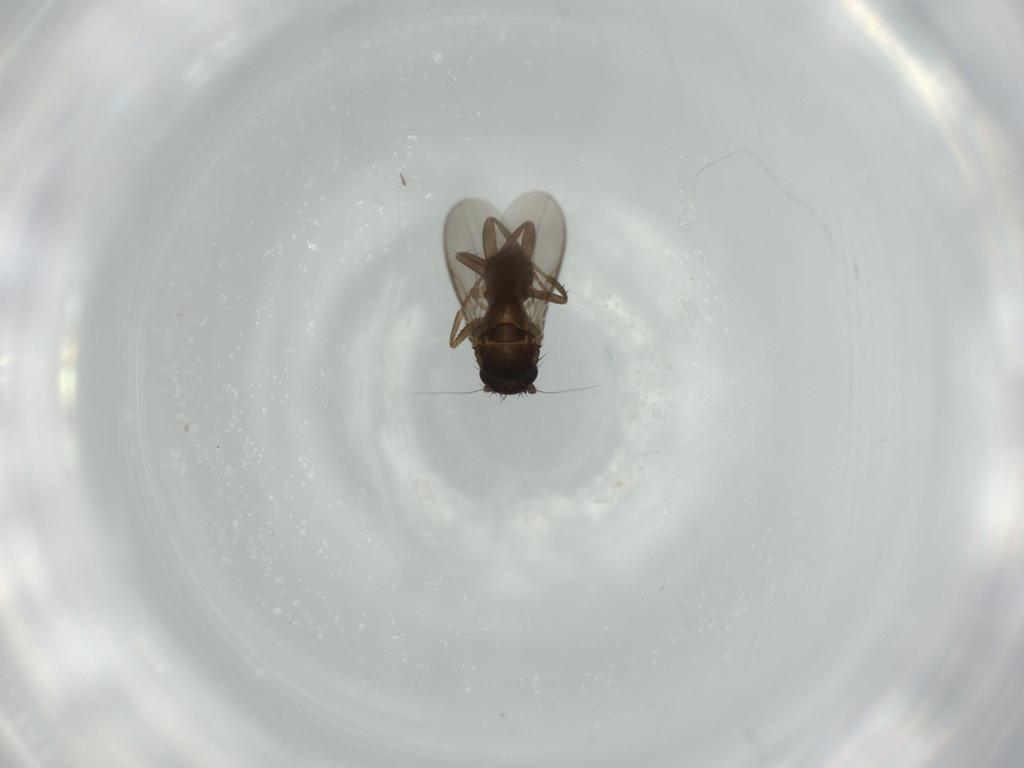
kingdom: Animalia
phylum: Arthropoda
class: Insecta
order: Diptera
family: Sphaeroceridae
